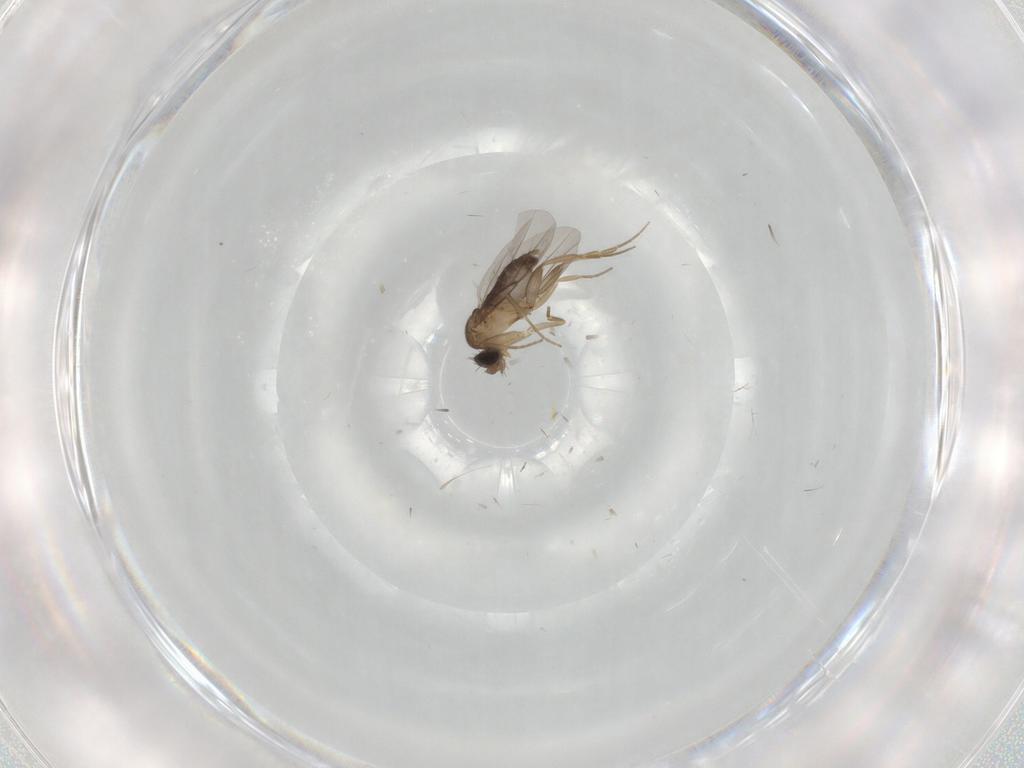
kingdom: Animalia
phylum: Arthropoda
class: Insecta
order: Diptera
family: Phoridae
